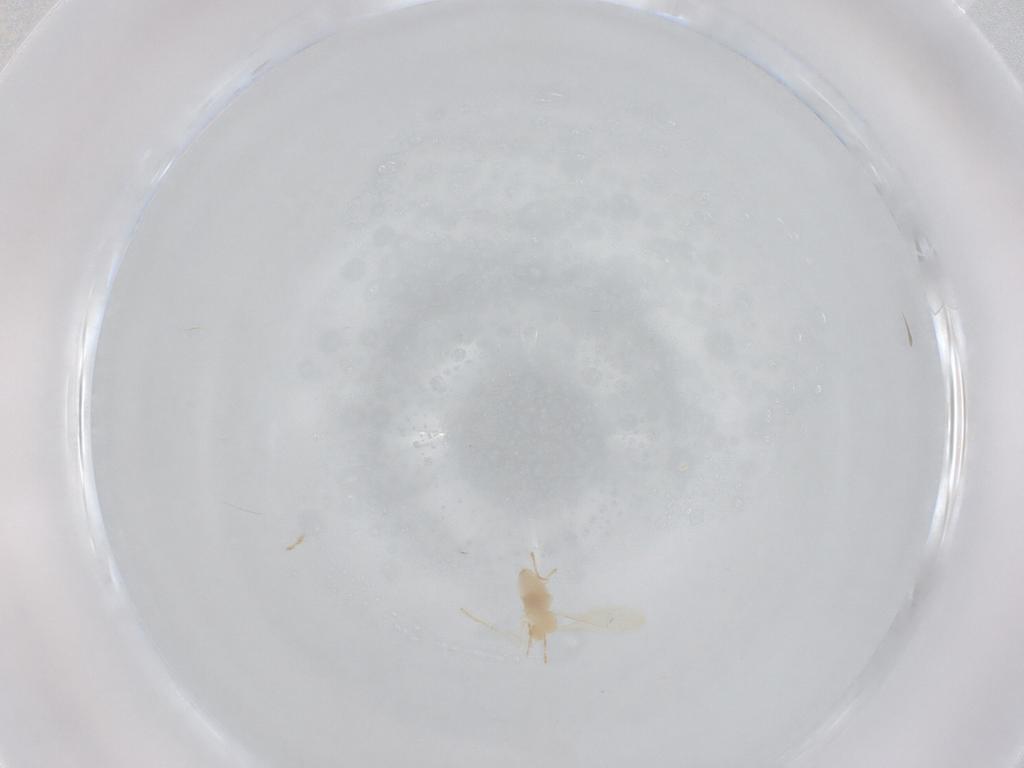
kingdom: Animalia
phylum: Arthropoda
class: Insecta
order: Diptera
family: Cecidomyiidae
